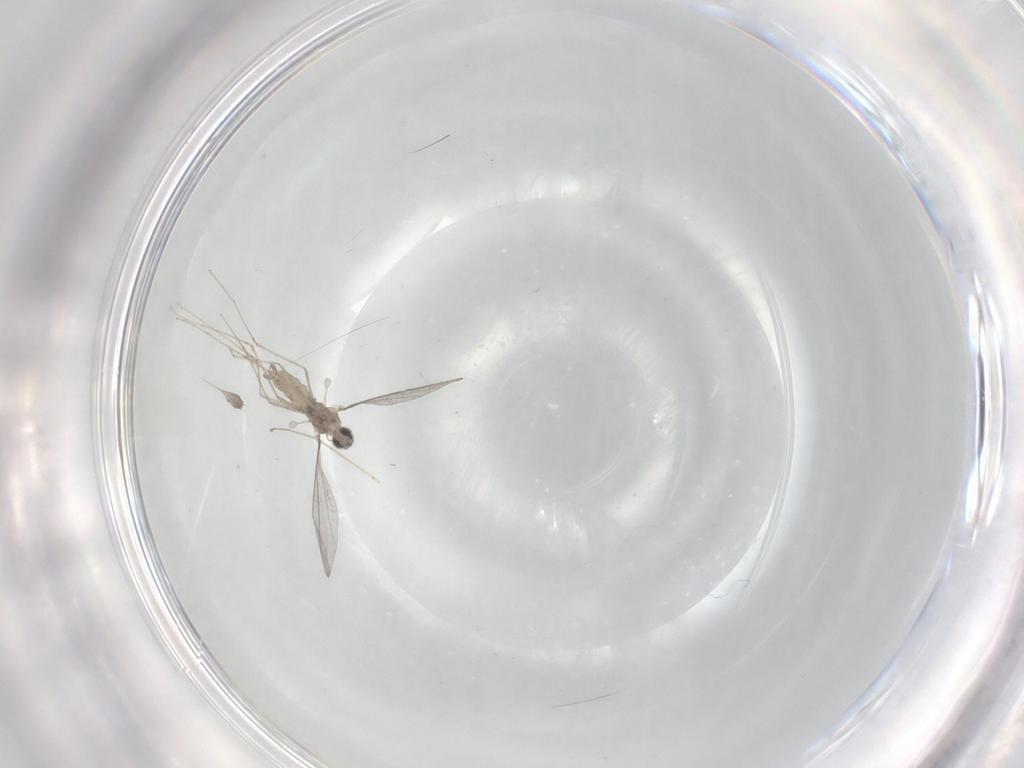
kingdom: Animalia
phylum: Arthropoda
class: Insecta
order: Diptera
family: Cecidomyiidae
